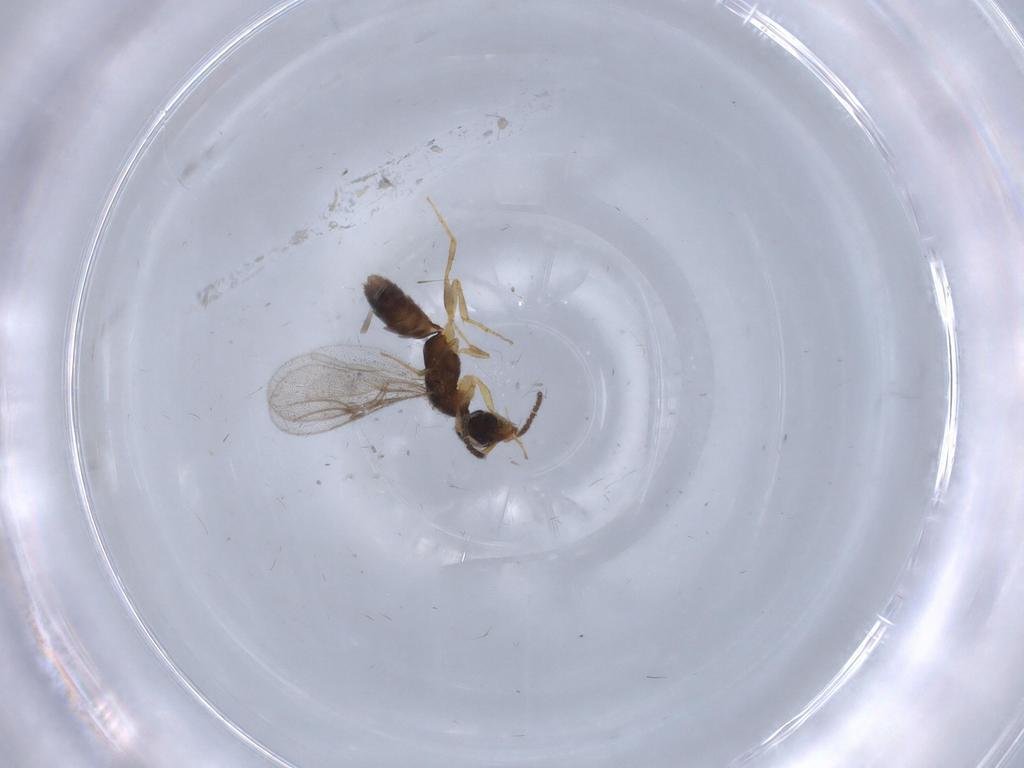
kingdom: Animalia
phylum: Arthropoda
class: Insecta
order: Hymenoptera
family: Bethylidae
